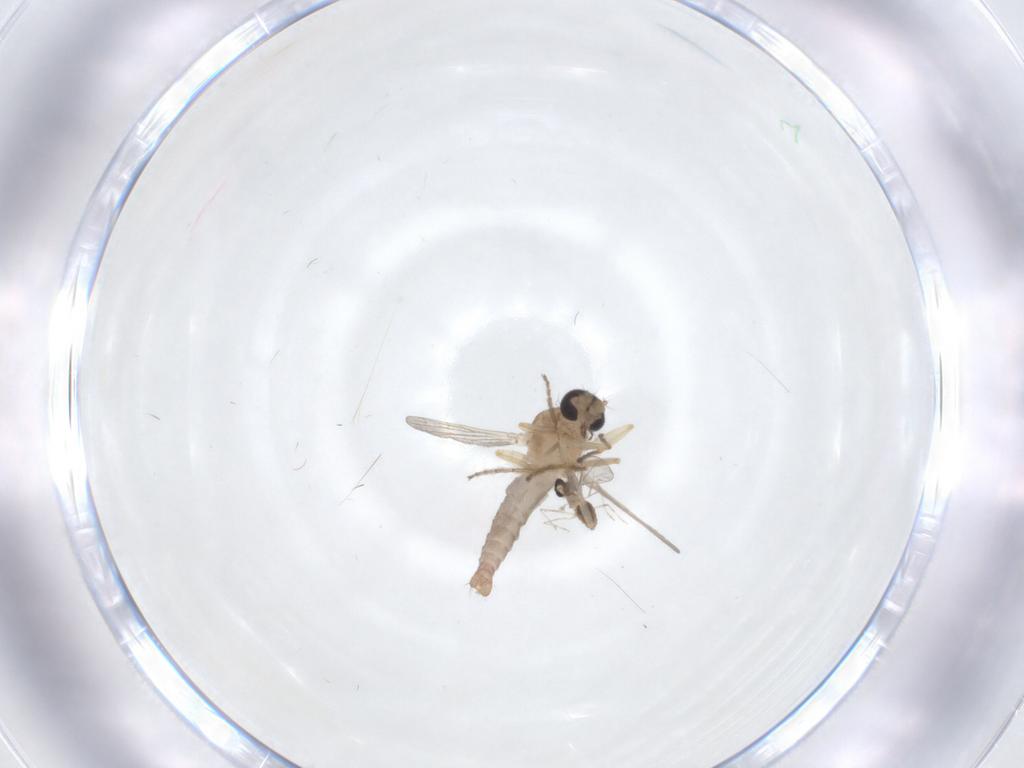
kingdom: Animalia
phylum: Arthropoda
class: Insecta
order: Diptera
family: Ceratopogonidae
